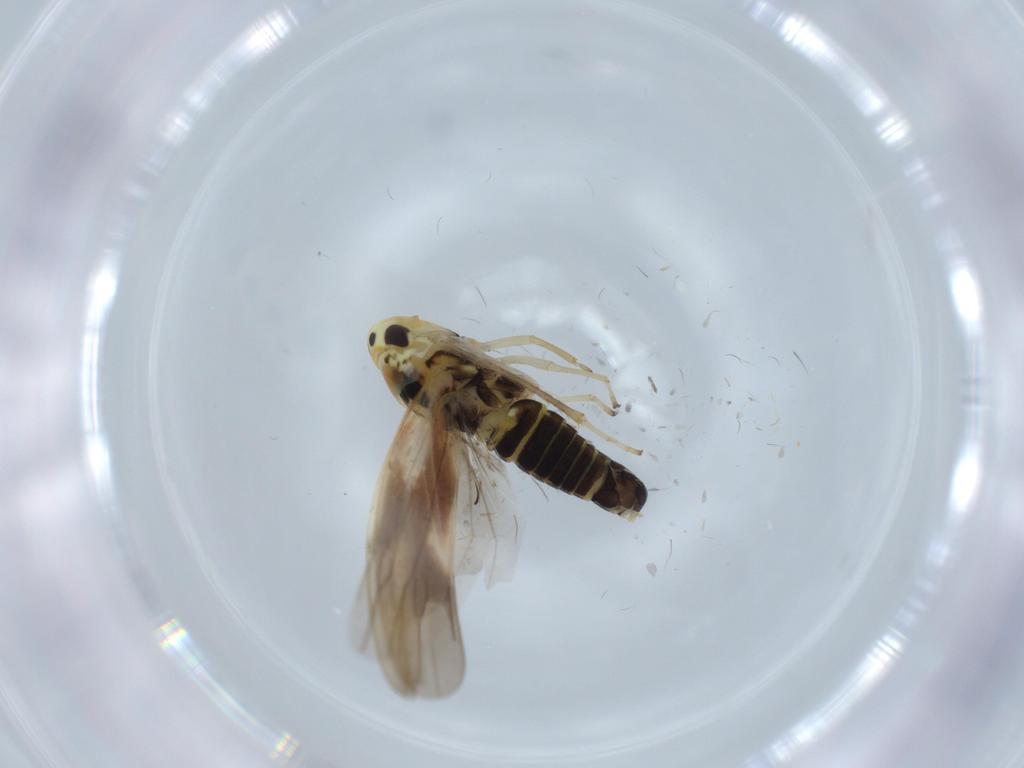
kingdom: Animalia
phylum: Arthropoda
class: Insecta
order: Hemiptera
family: Cicadellidae
